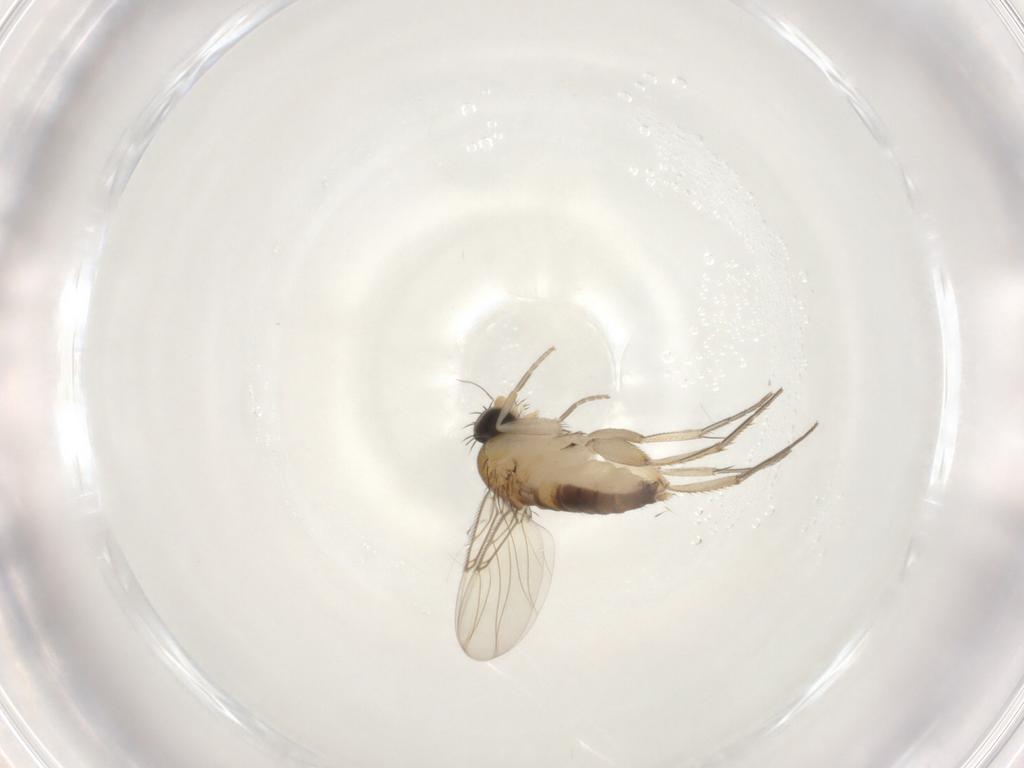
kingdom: Animalia
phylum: Arthropoda
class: Insecta
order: Diptera
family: Phoridae
